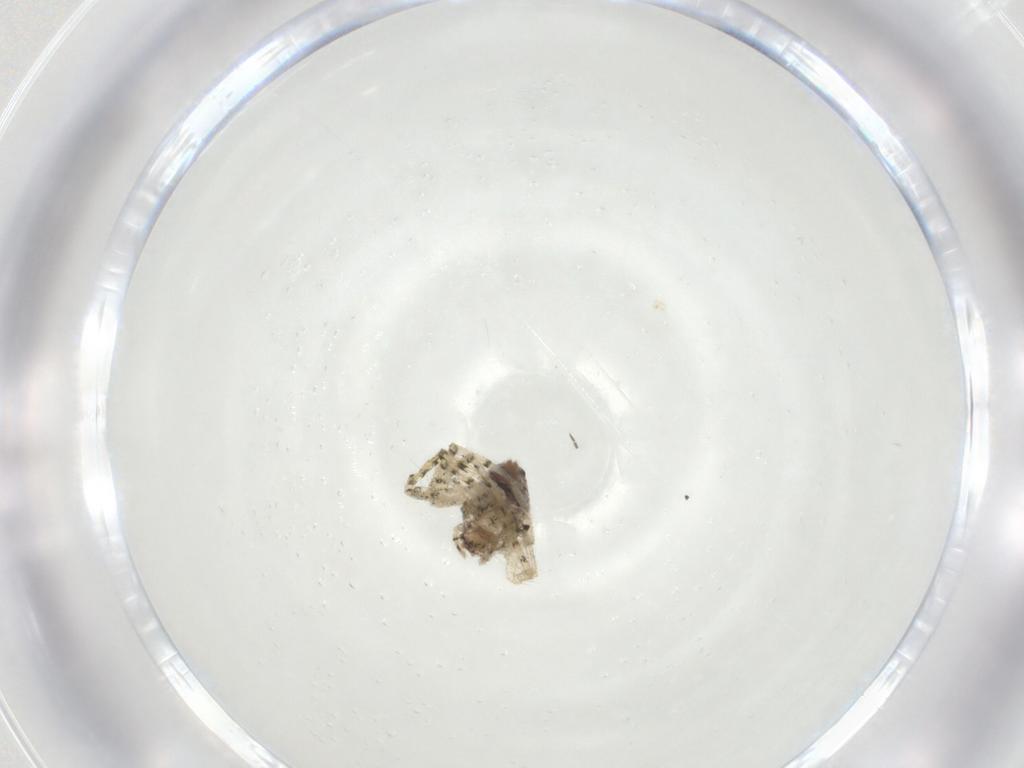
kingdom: Animalia
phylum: Arthropoda
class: Arachnida
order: Araneae
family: Theridiidae
